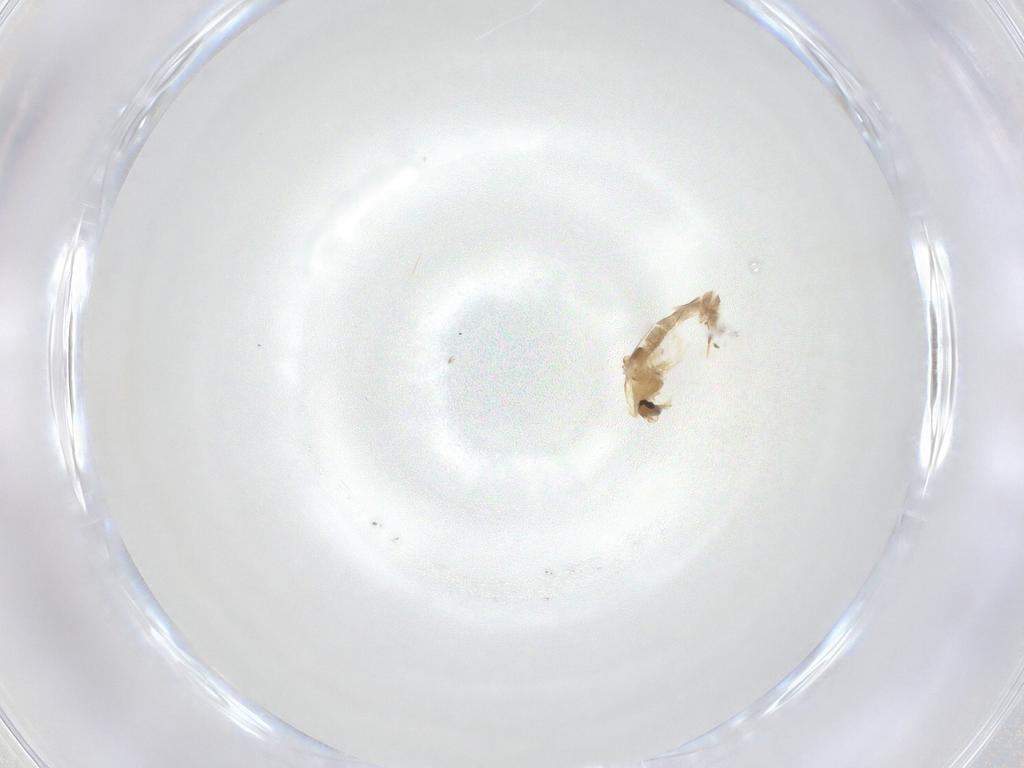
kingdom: Animalia
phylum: Arthropoda
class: Insecta
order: Diptera
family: Chironomidae
